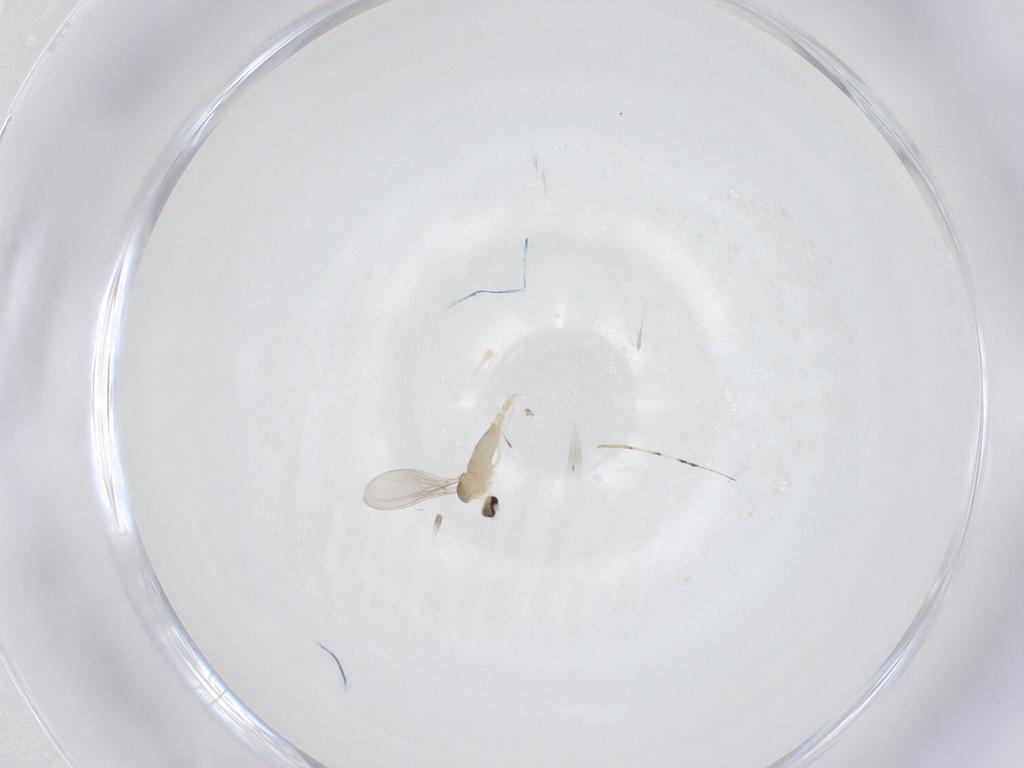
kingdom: Animalia
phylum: Arthropoda
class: Insecta
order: Diptera
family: Cecidomyiidae
